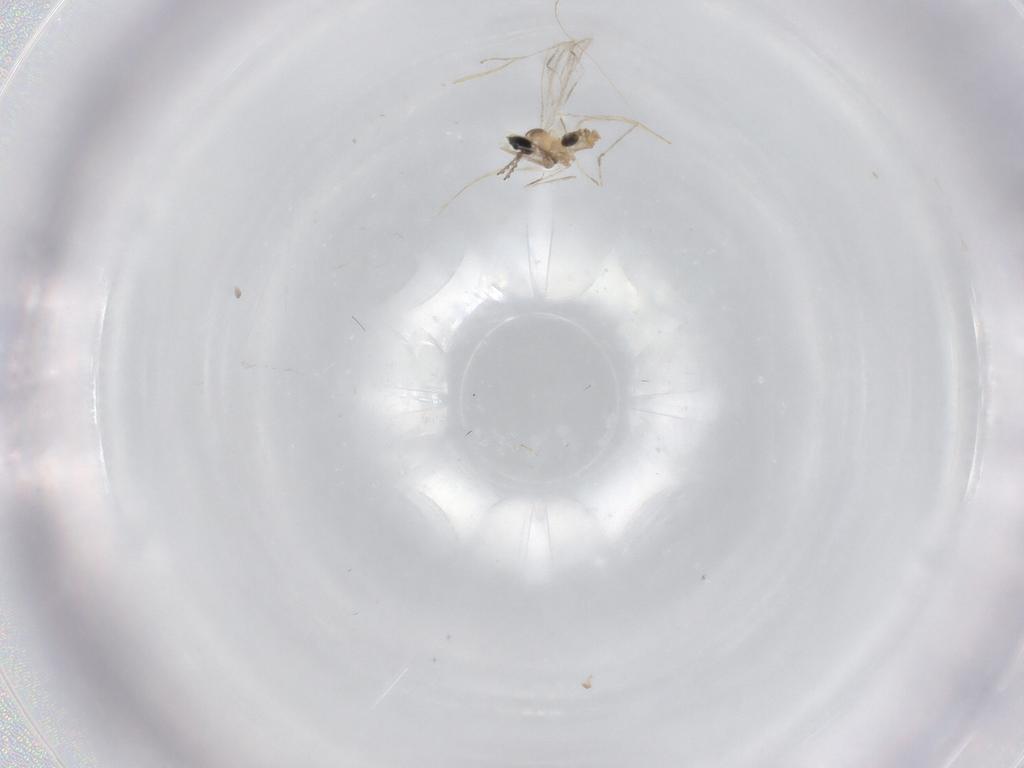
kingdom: Animalia
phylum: Arthropoda
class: Insecta
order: Diptera
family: Cecidomyiidae
